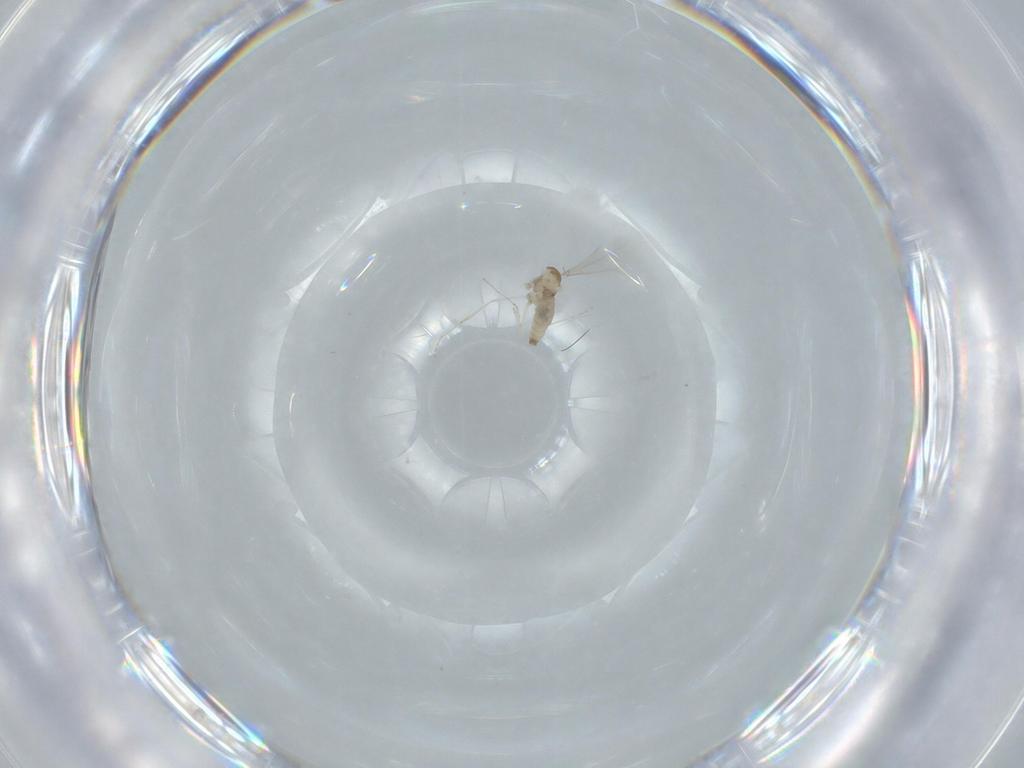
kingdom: Animalia
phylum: Arthropoda
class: Insecta
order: Diptera
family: Cecidomyiidae
